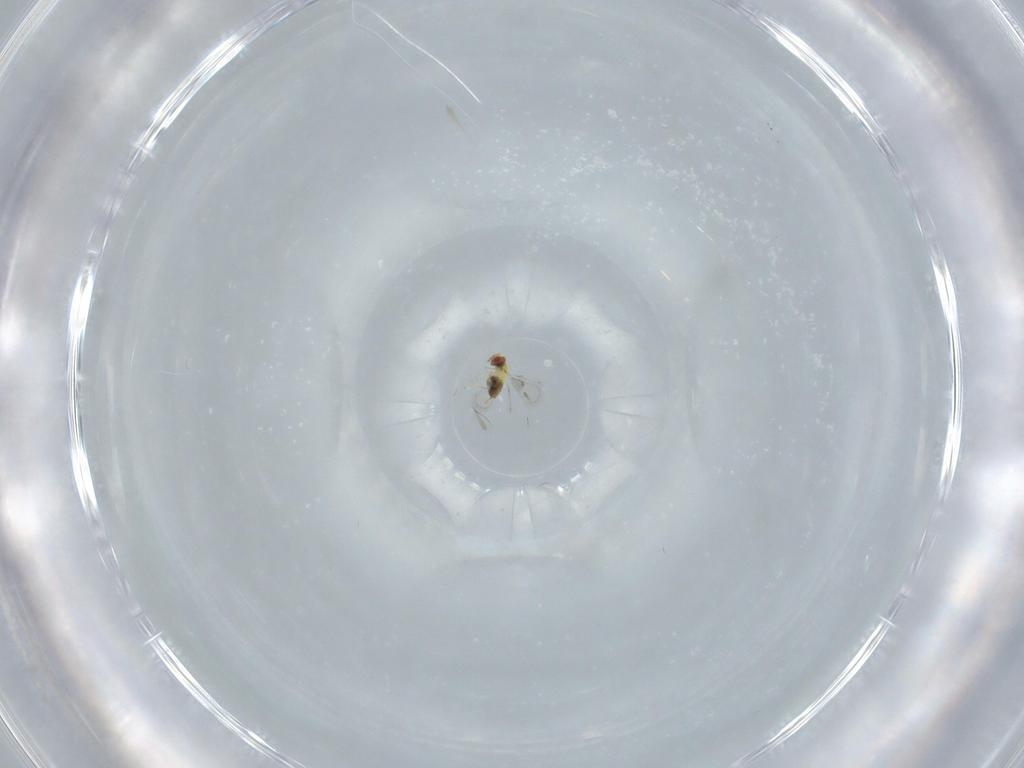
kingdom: Animalia
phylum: Arthropoda
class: Insecta
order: Hymenoptera
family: Trichogrammatidae
